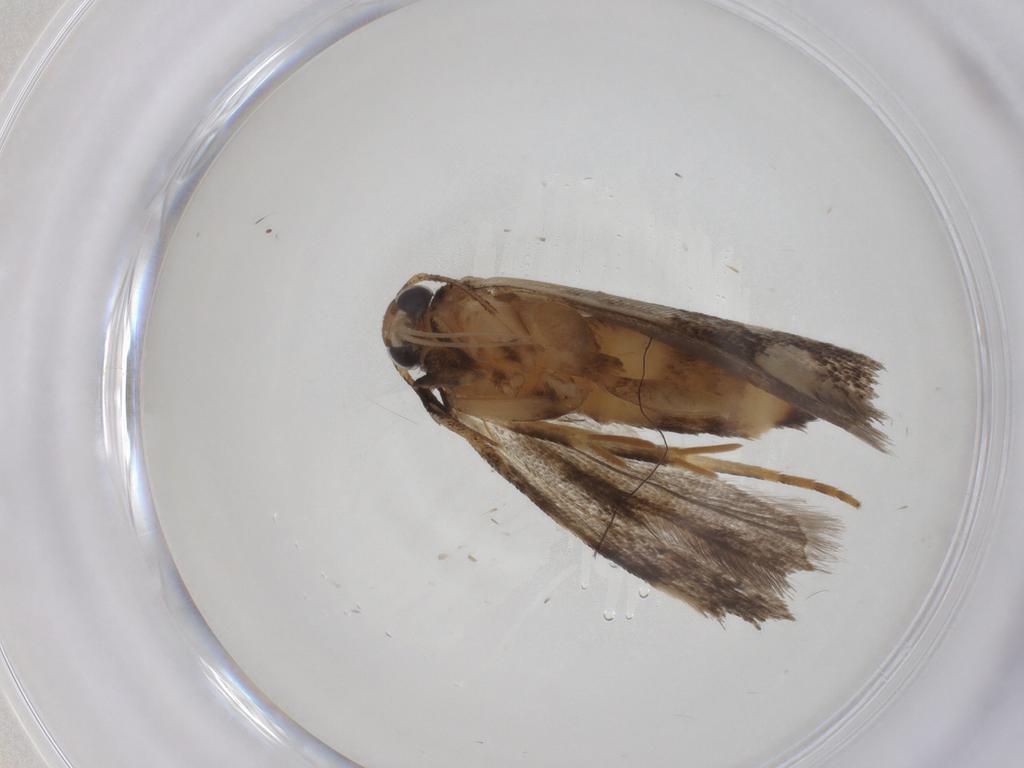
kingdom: Animalia
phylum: Arthropoda
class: Insecta
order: Lepidoptera
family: Gelechiidae
